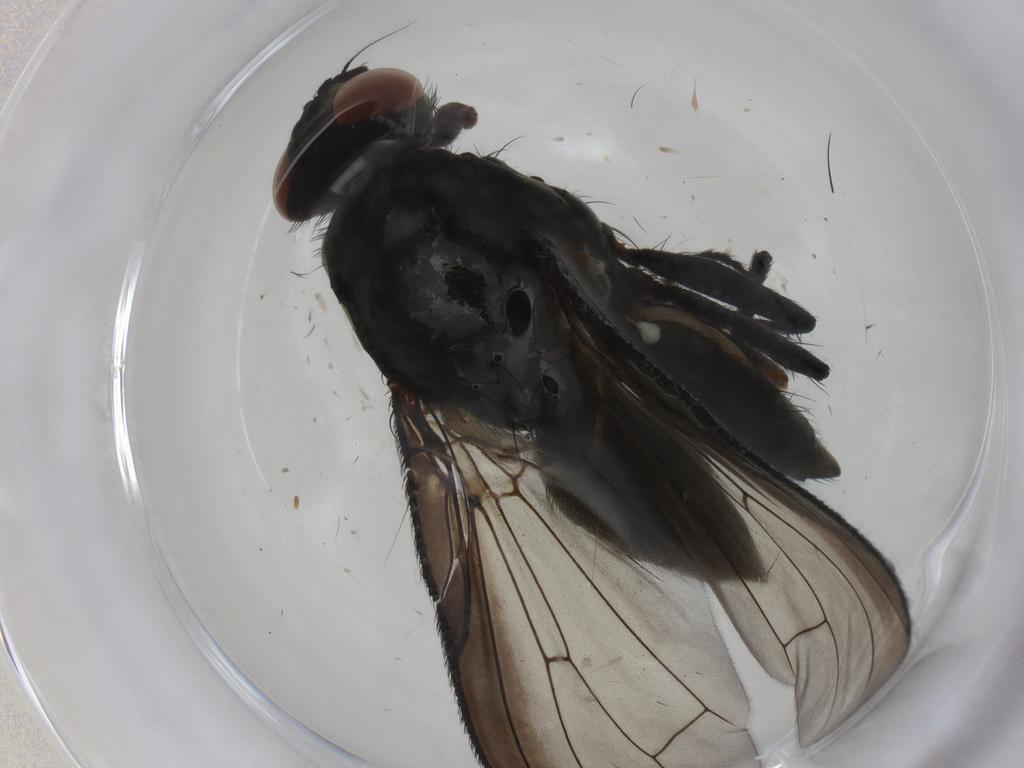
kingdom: Animalia
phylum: Arthropoda
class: Insecta
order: Diptera
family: Anthomyiidae
